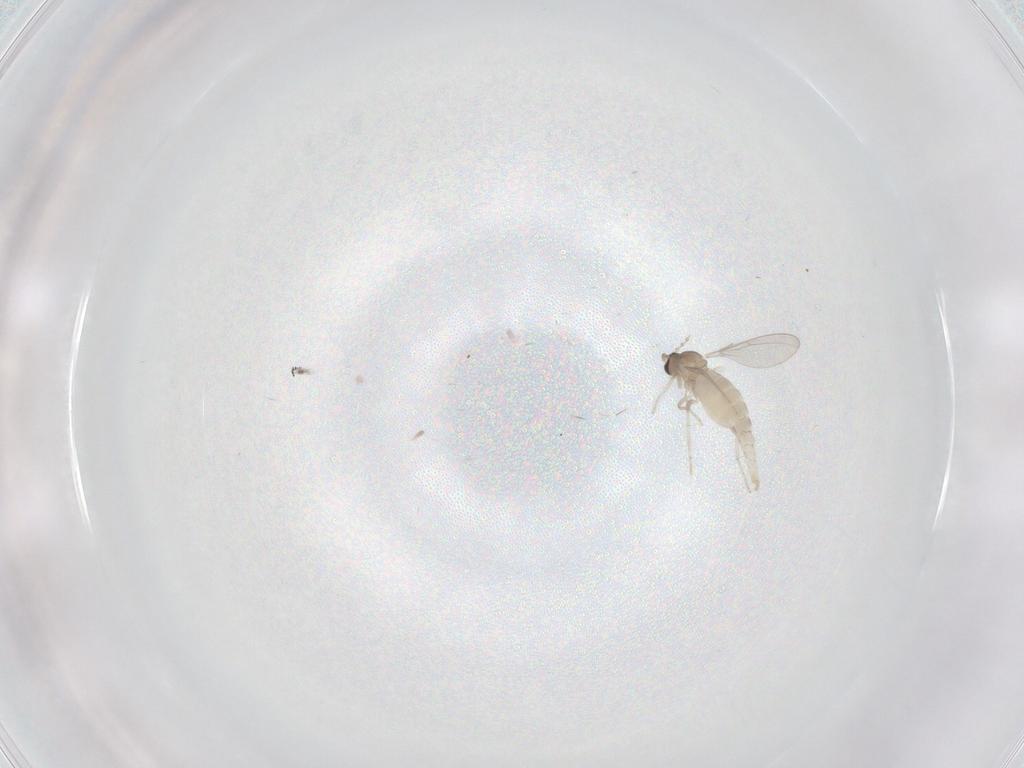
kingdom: Animalia
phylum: Arthropoda
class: Insecta
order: Diptera
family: Cecidomyiidae
